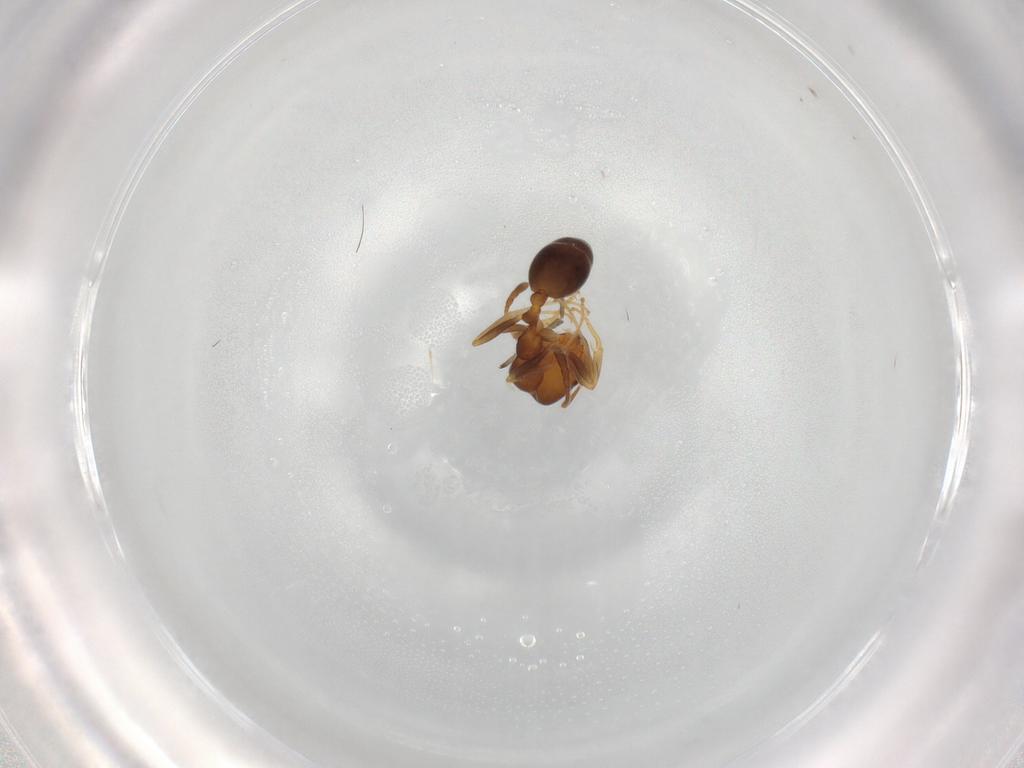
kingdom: Animalia
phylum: Arthropoda
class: Insecta
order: Hymenoptera
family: Formicidae
